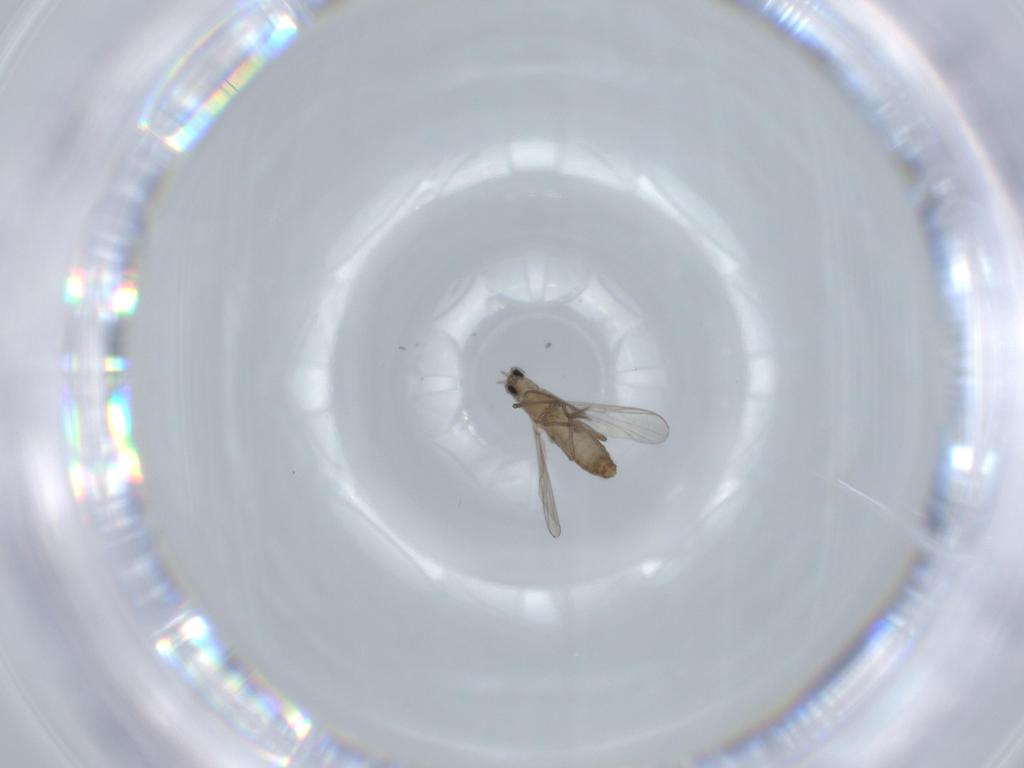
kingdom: Animalia
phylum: Arthropoda
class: Insecta
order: Diptera
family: Chironomidae
